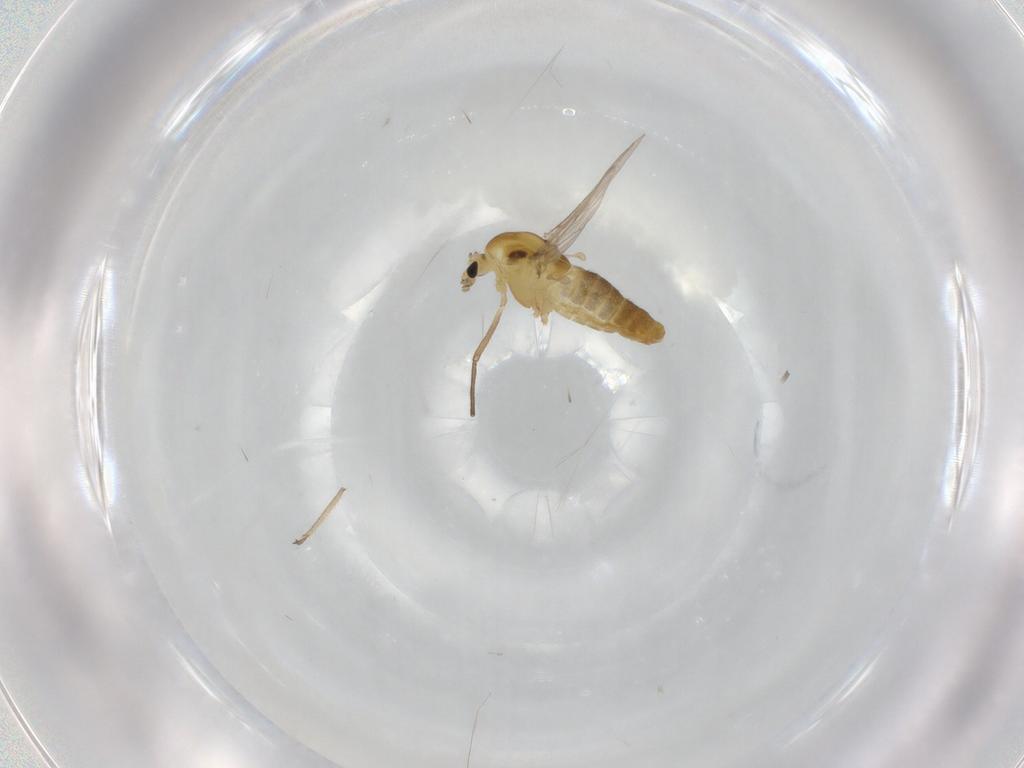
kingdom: Animalia
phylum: Arthropoda
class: Insecta
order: Diptera
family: Chironomidae
